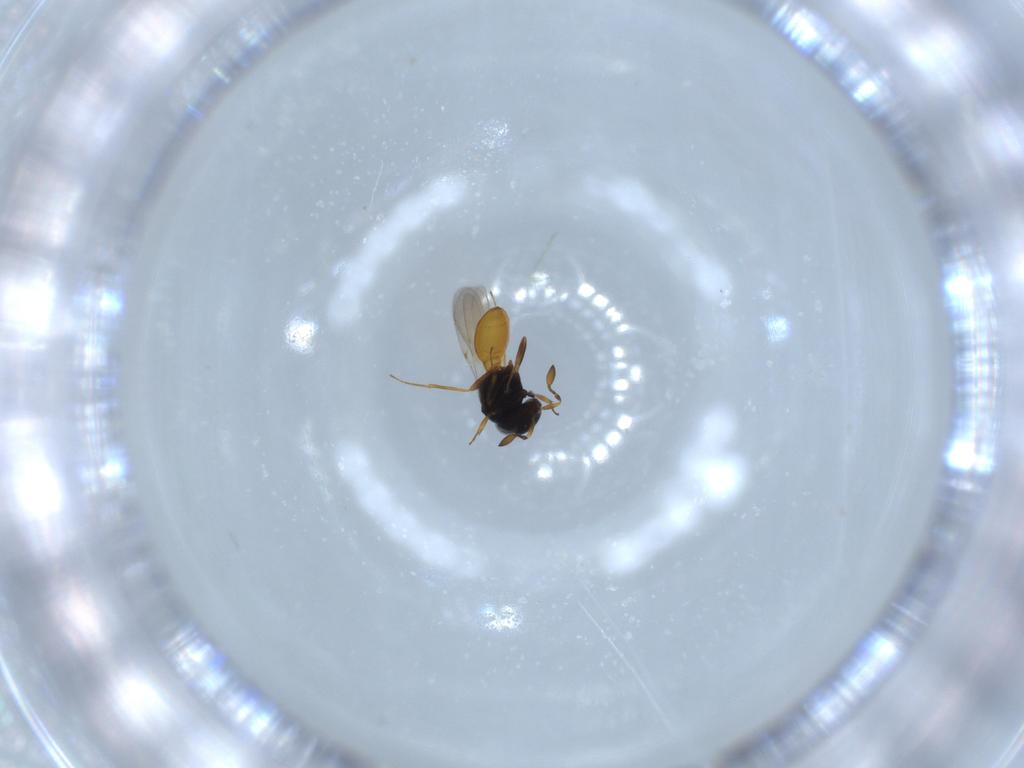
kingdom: Animalia
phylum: Arthropoda
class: Insecta
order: Hymenoptera
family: Scelionidae
